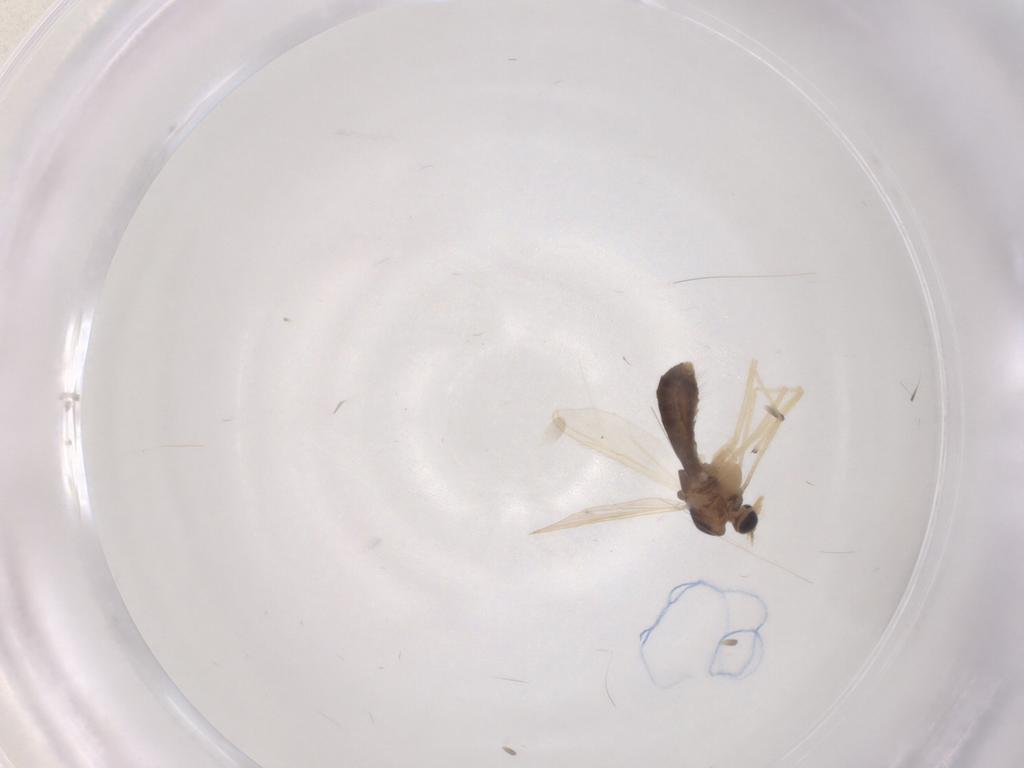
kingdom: Animalia
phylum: Arthropoda
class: Insecta
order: Diptera
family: Chironomidae
